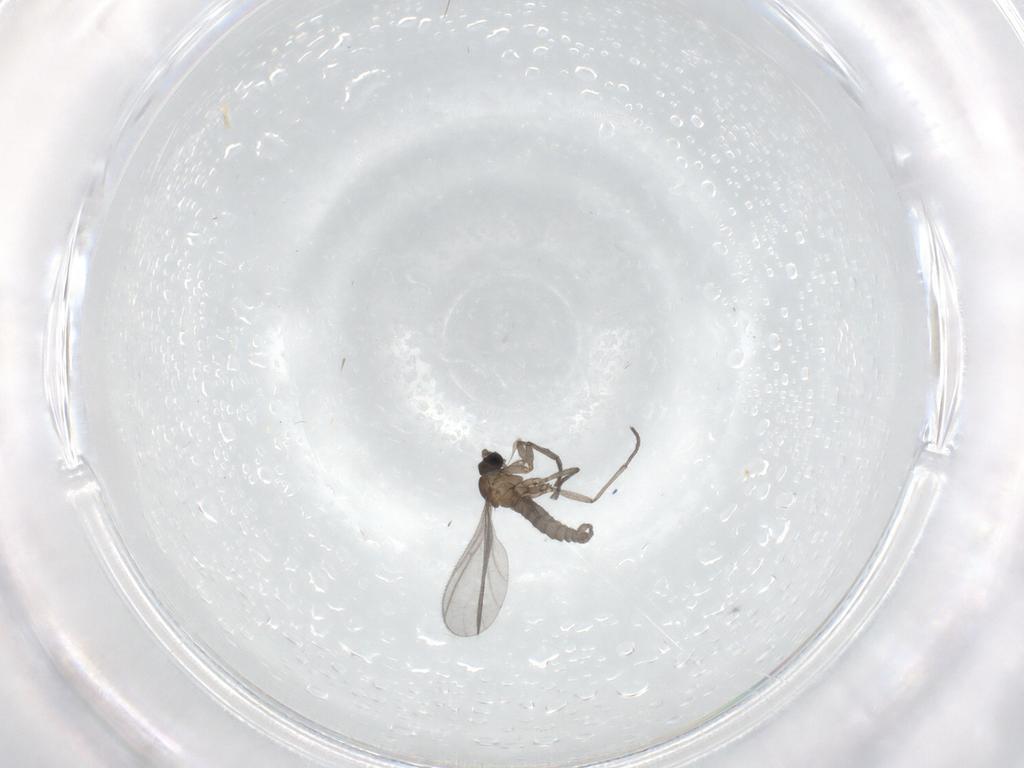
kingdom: Animalia
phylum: Arthropoda
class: Insecta
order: Diptera
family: Sciaridae
